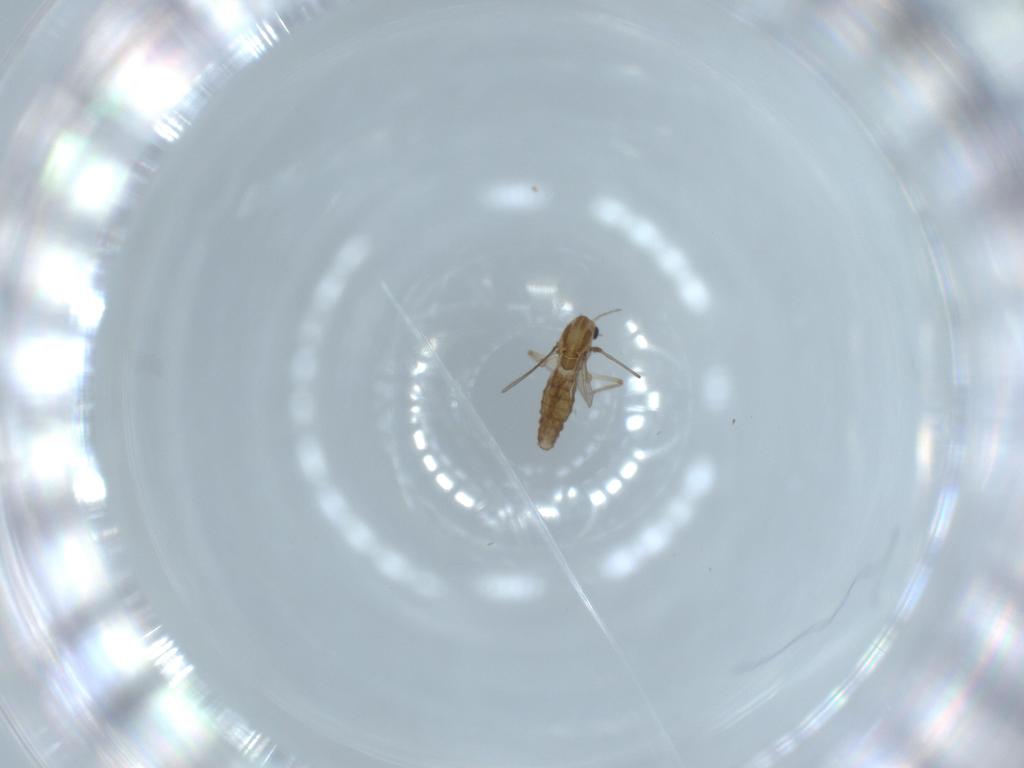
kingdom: Animalia
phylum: Arthropoda
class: Insecta
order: Diptera
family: Chironomidae
